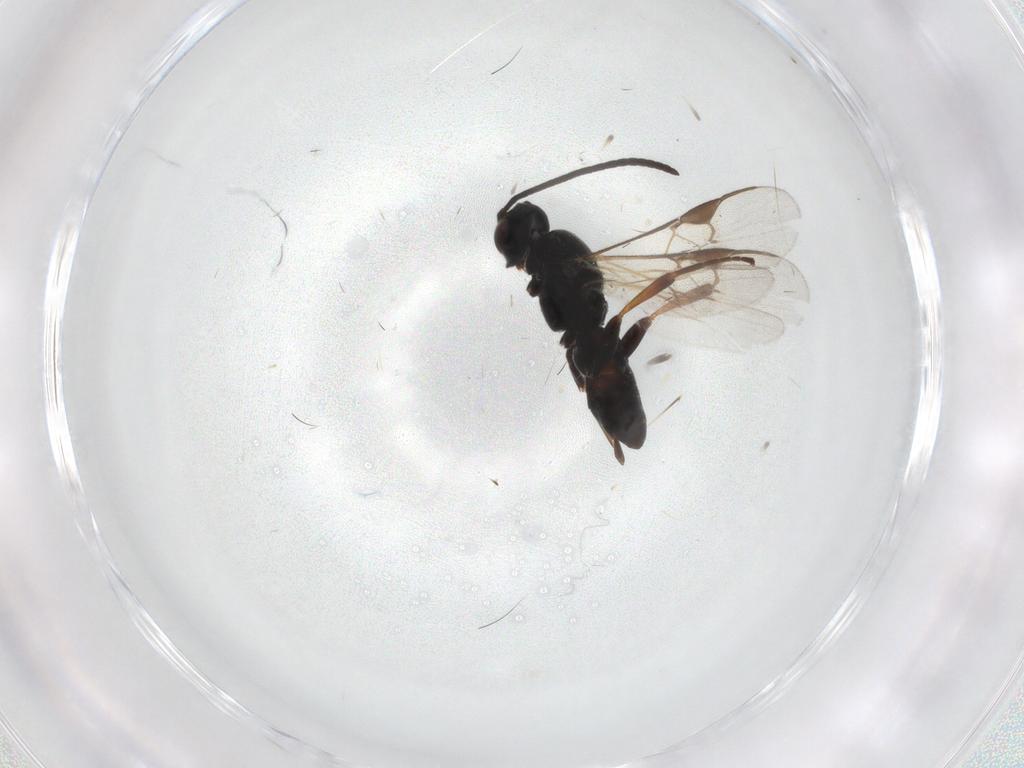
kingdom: Animalia
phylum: Arthropoda
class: Insecta
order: Hymenoptera
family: Braconidae
